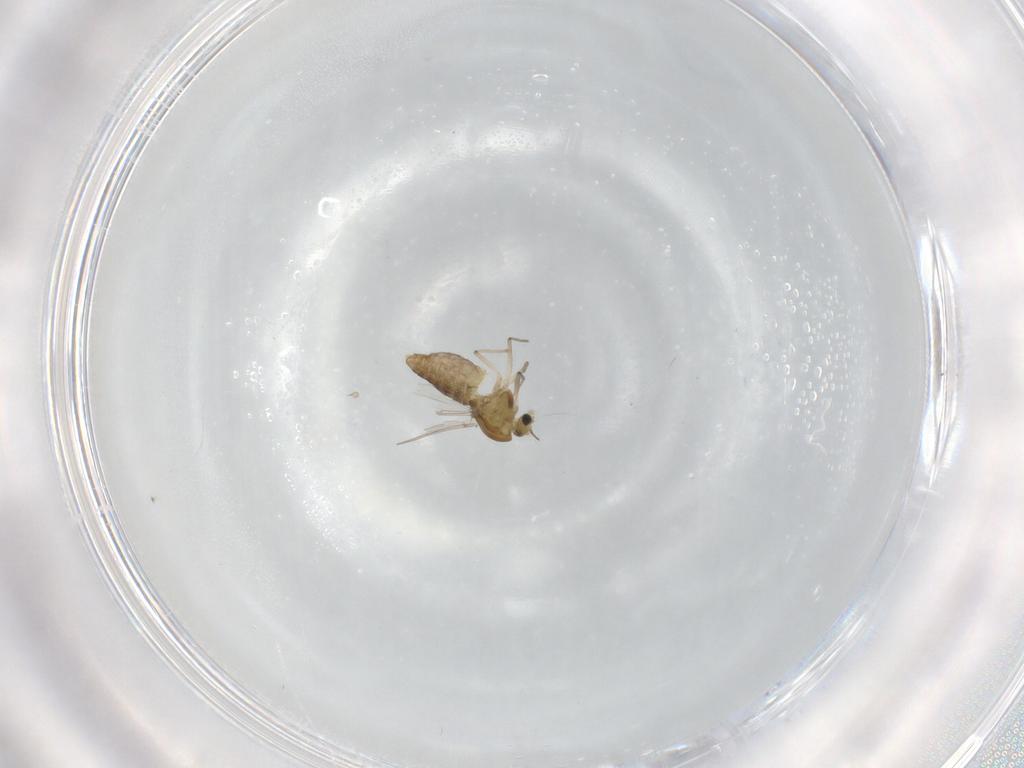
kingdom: Animalia
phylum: Arthropoda
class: Insecta
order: Diptera
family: Chironomidae
